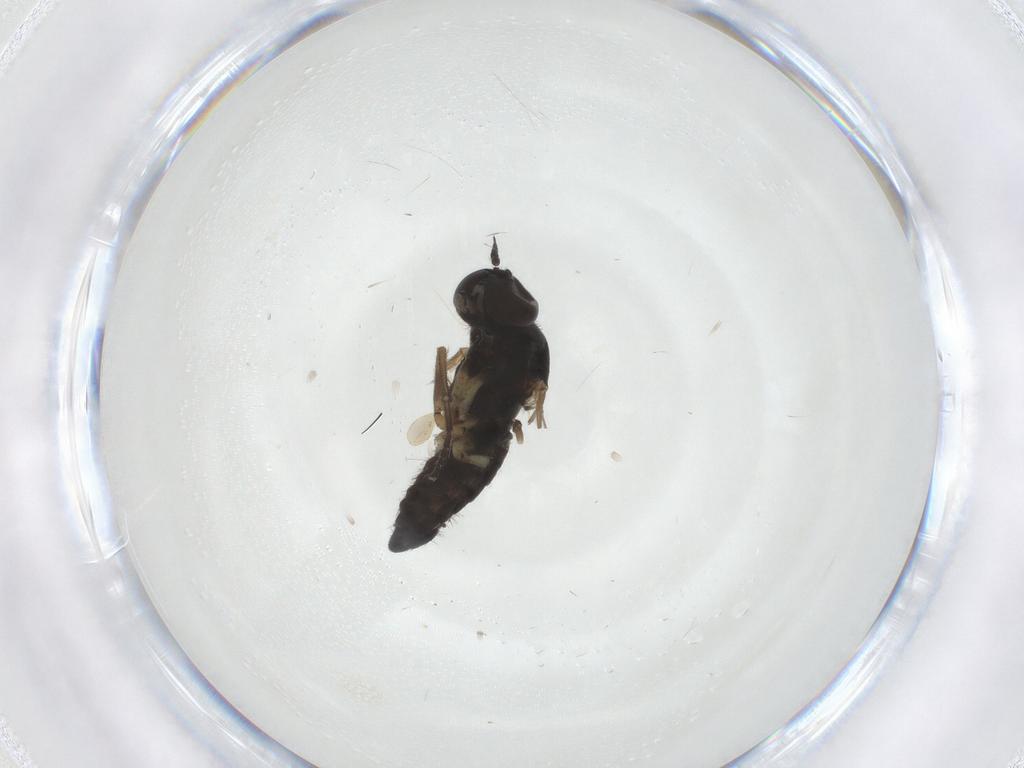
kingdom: Animalia
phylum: Arthropoda
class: Insecta
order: Diptera
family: Empididae
